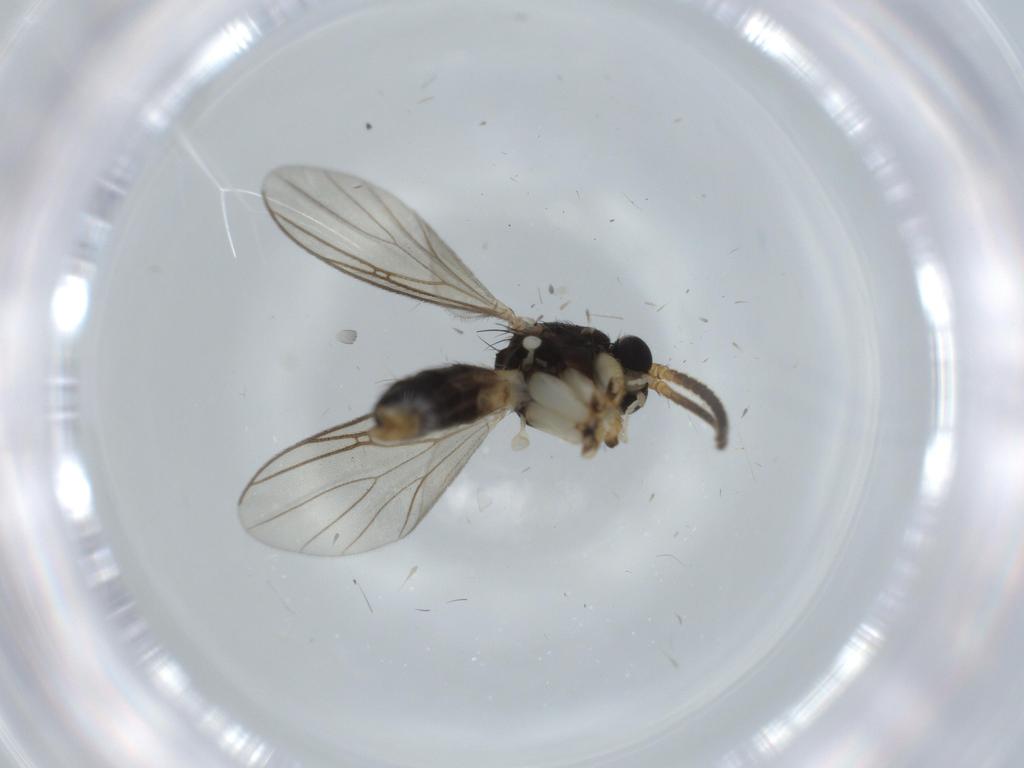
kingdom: Animalia
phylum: Arthropoda
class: Insecta
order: Diptera
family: Sciaridae
